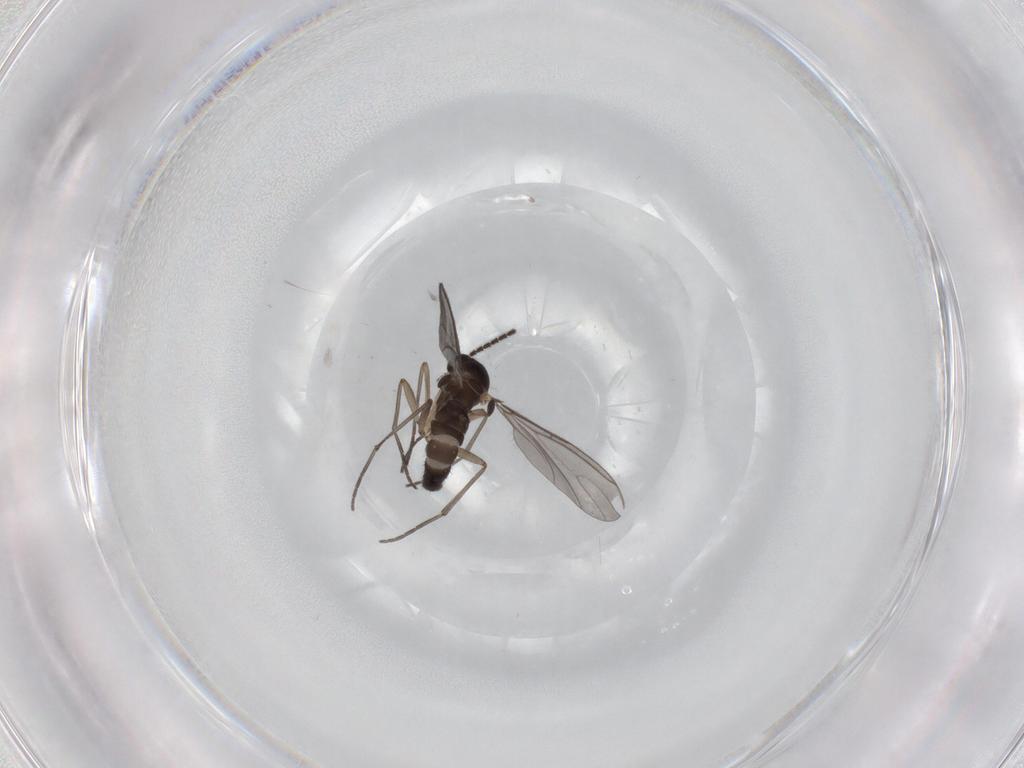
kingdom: Animalia
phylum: Arthropoda
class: Insecta
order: Diptera
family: Sciaridae
